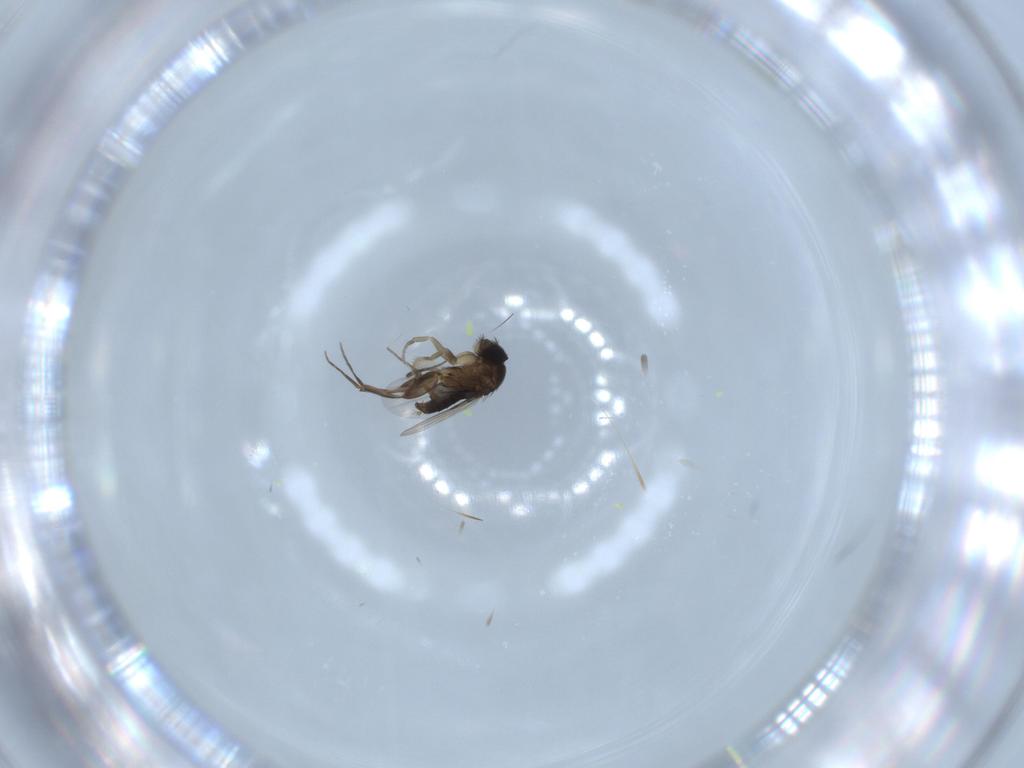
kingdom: Animalia
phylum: Arthropoda
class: Insecta
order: Diptera
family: Phoridae
